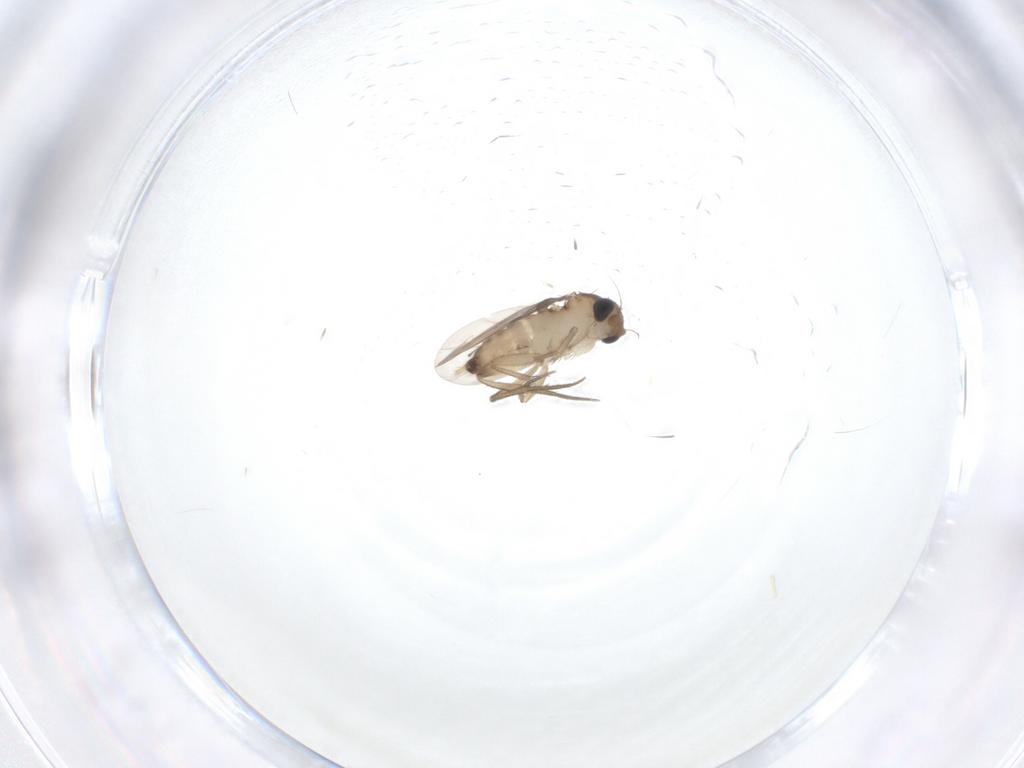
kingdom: Animalia
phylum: Arthropoda
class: Insecta
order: Diptera
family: Phoridae
